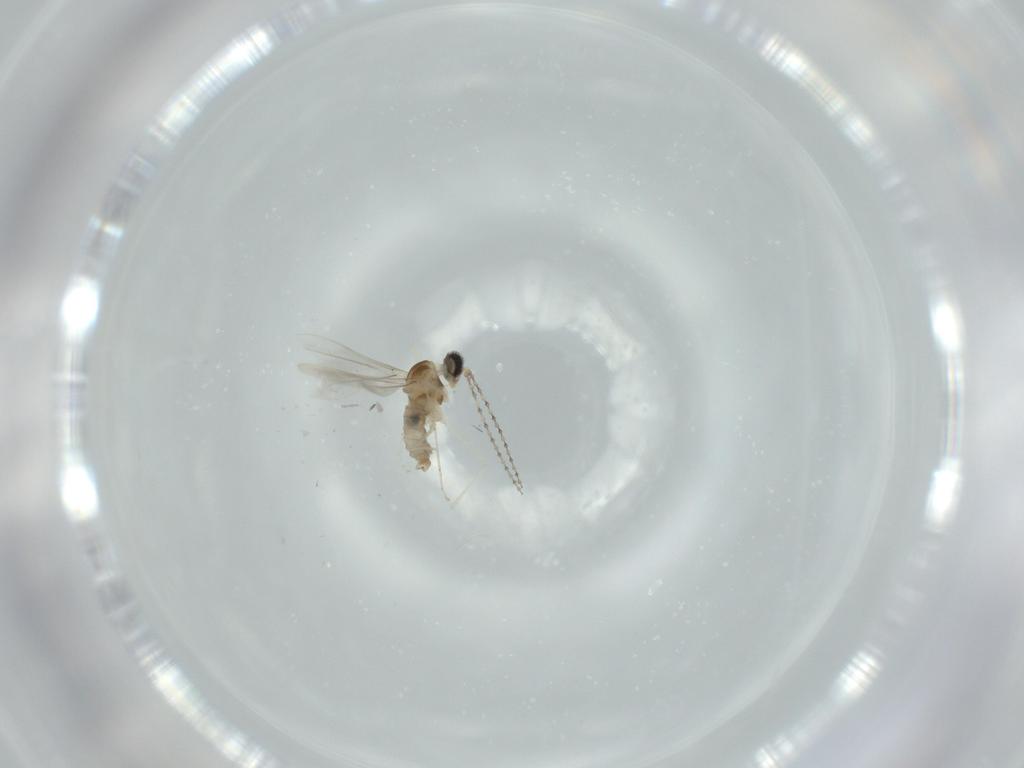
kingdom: Animalia
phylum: Arthropoda
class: Insecta
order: Diptera
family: Cecidomyiidae
